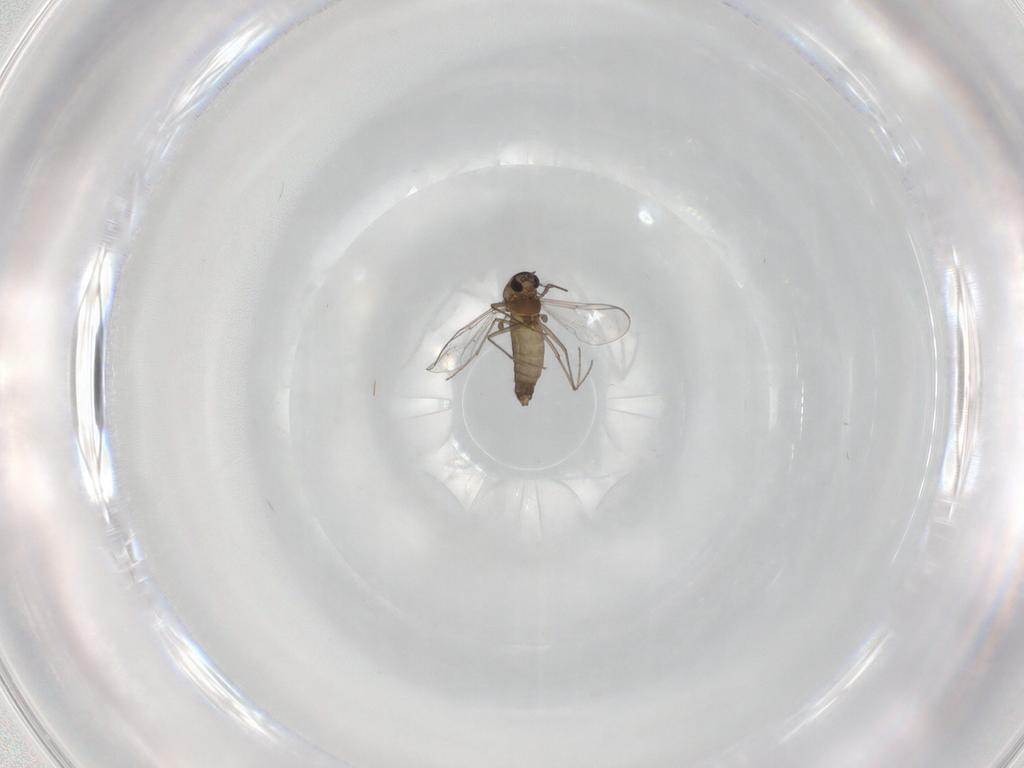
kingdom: Animalia
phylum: Arthropoda
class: Insecta
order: Diptera
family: Chironomidae
